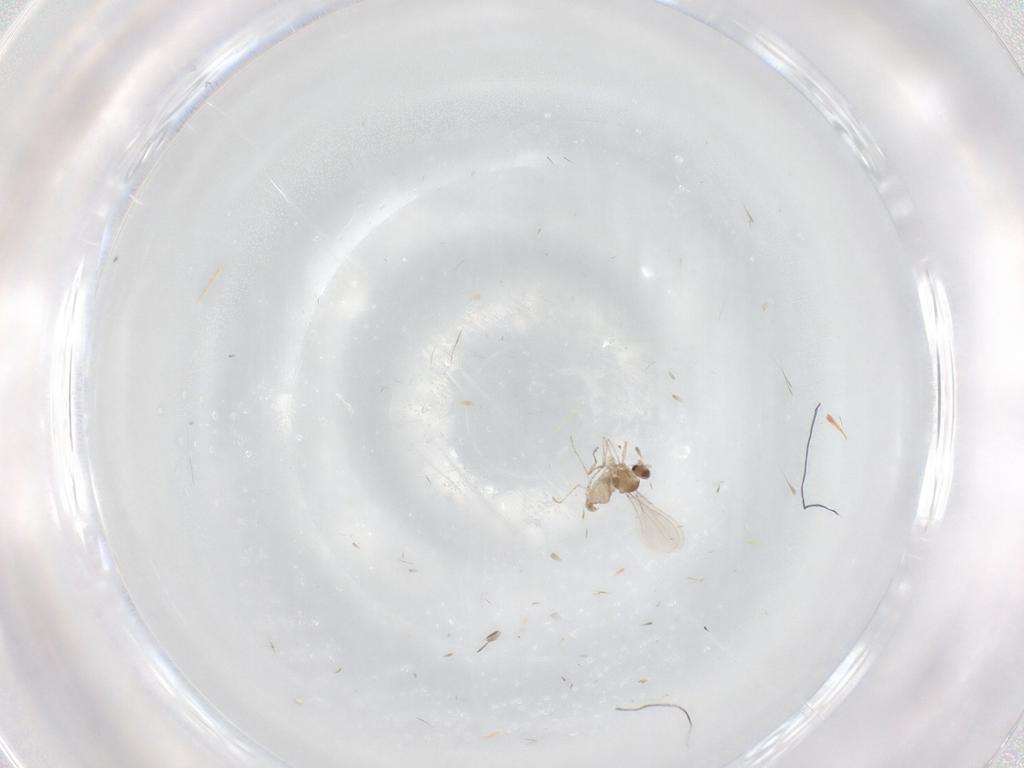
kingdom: Animalia
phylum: Arthropoda
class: Insecta
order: Diptera
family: Cecidomyiidae
